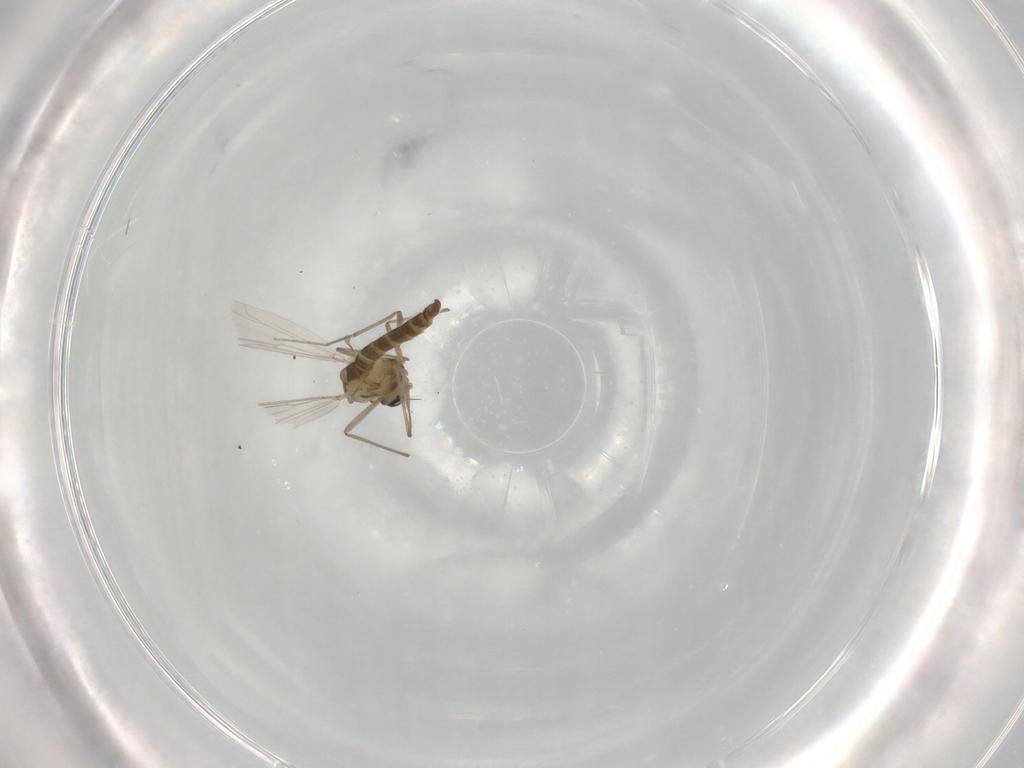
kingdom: Animalia
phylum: Arthropoda
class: Insecta
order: Diptera
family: Chironomidae
